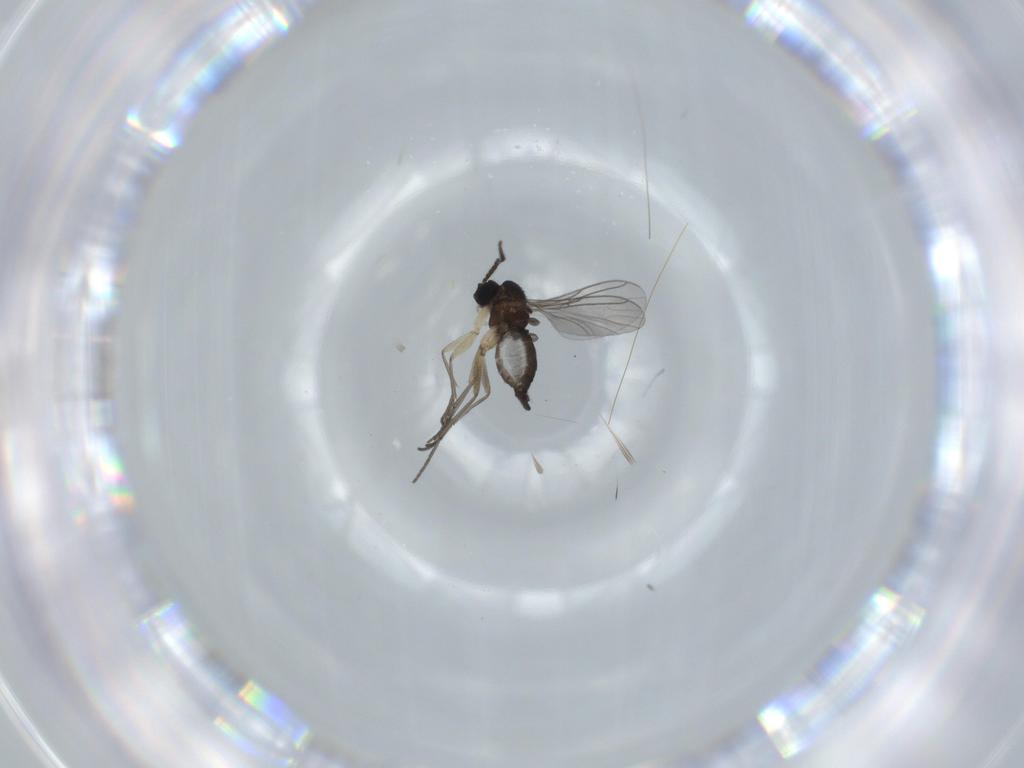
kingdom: Animalia
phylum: Arthropoda
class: Insecta
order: Diptera
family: Sciaridae
